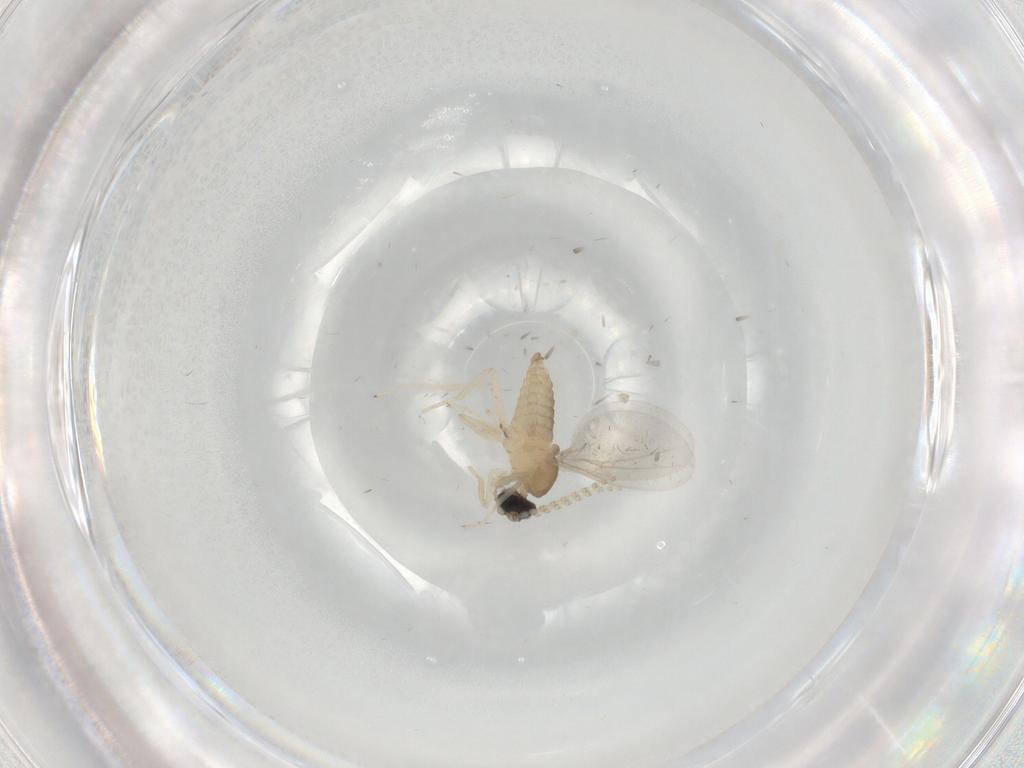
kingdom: Animalia
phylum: Arthropoda
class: Insecta
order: Diptera
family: Cecidomyiidae
